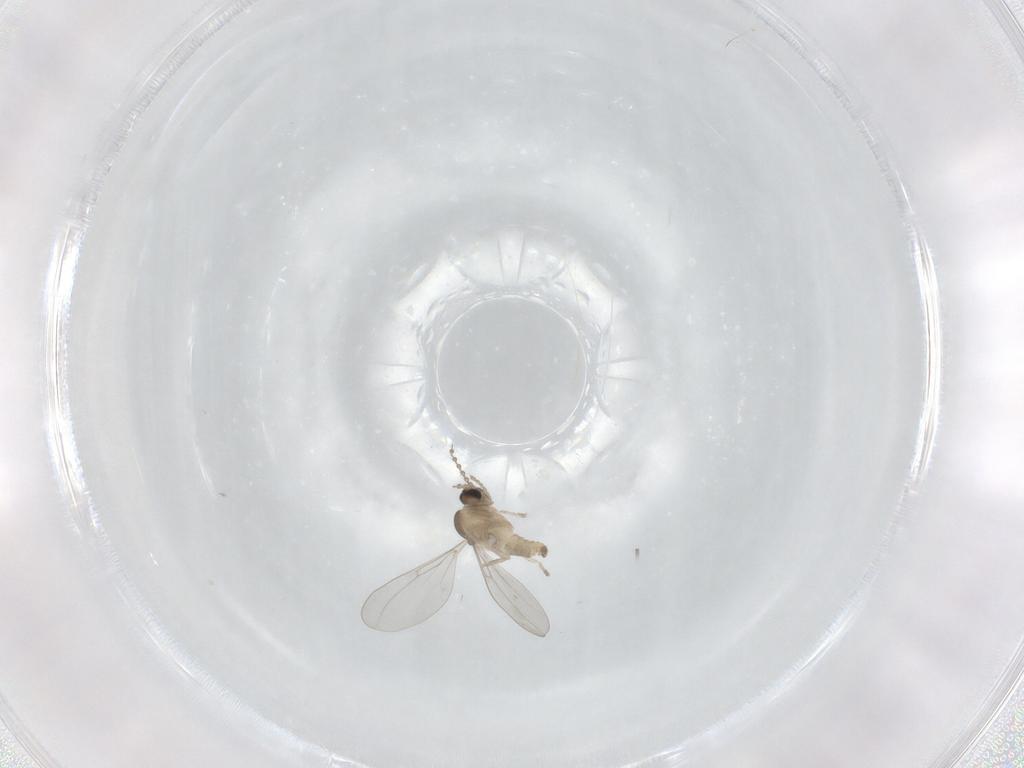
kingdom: Animalia
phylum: Arthropoda
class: Insecta
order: Diptera
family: Cecidomyiidae
